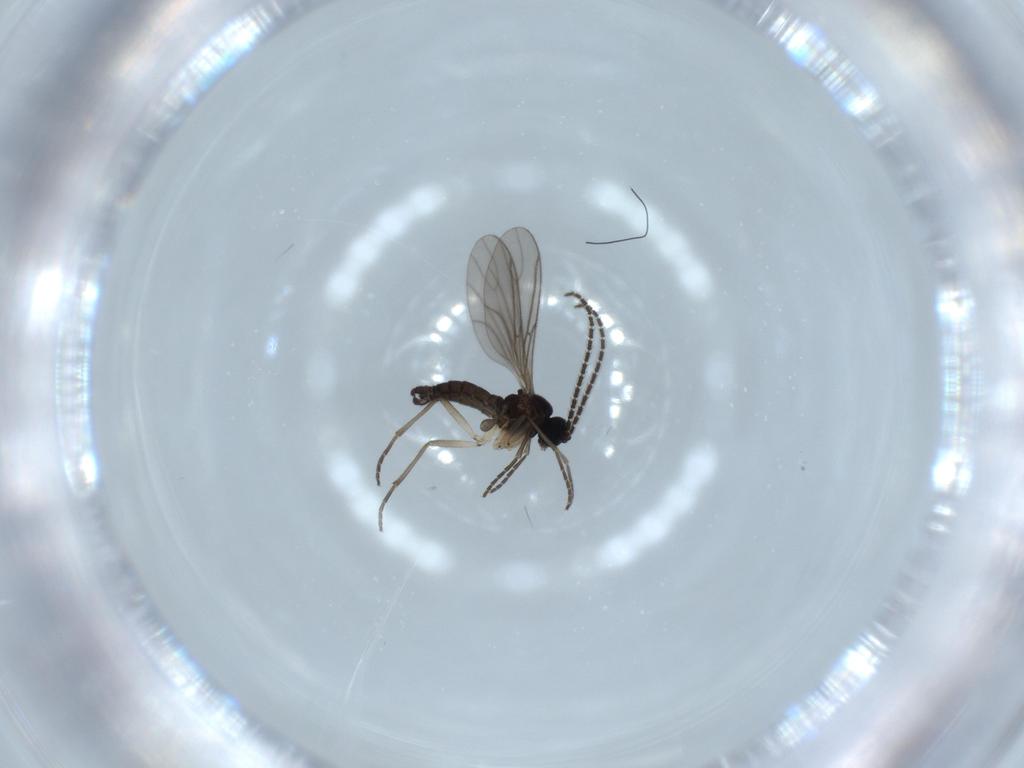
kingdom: Animalia
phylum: Arthropoda
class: Insecta
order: Diptera
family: Sciaridae
